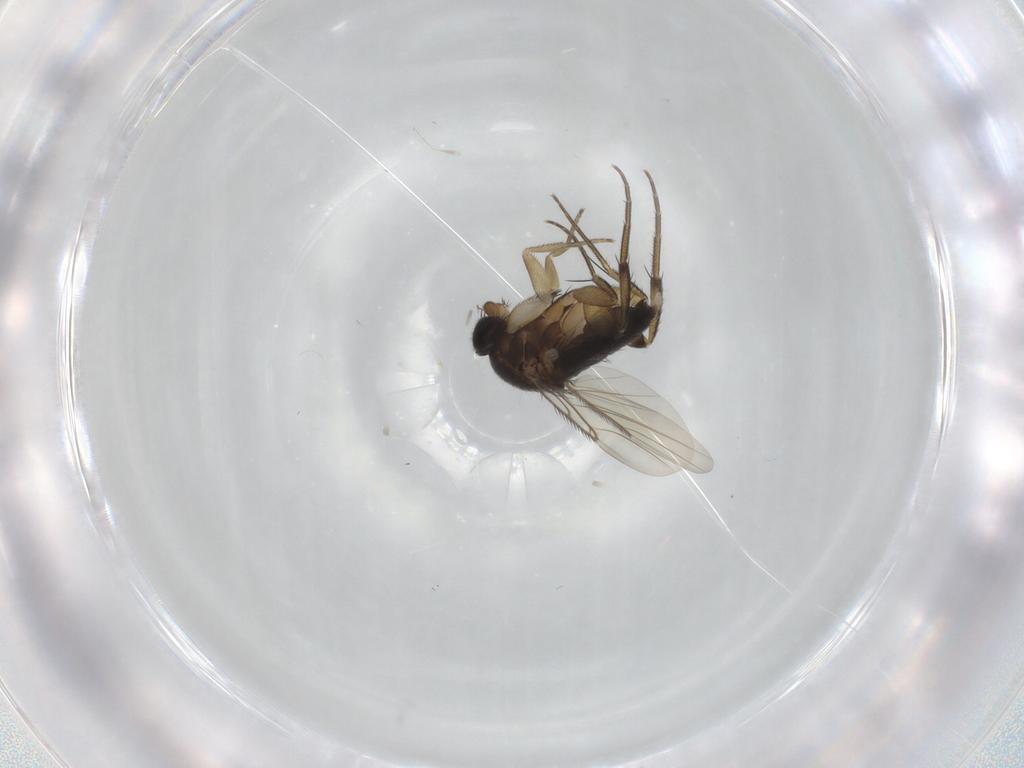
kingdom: Animalia
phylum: Arthropoda
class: Insecta
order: Diptera
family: Phoridae
